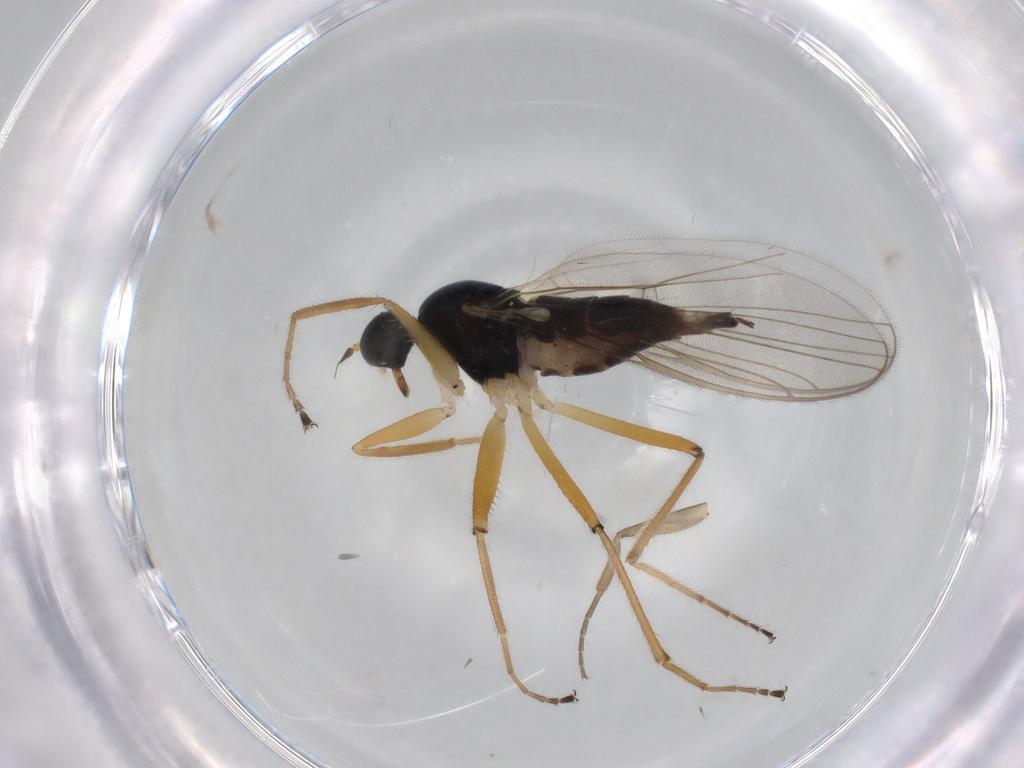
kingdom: Animalia
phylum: Arthropoda
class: Insecta
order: Diptera
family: Hybotidae
